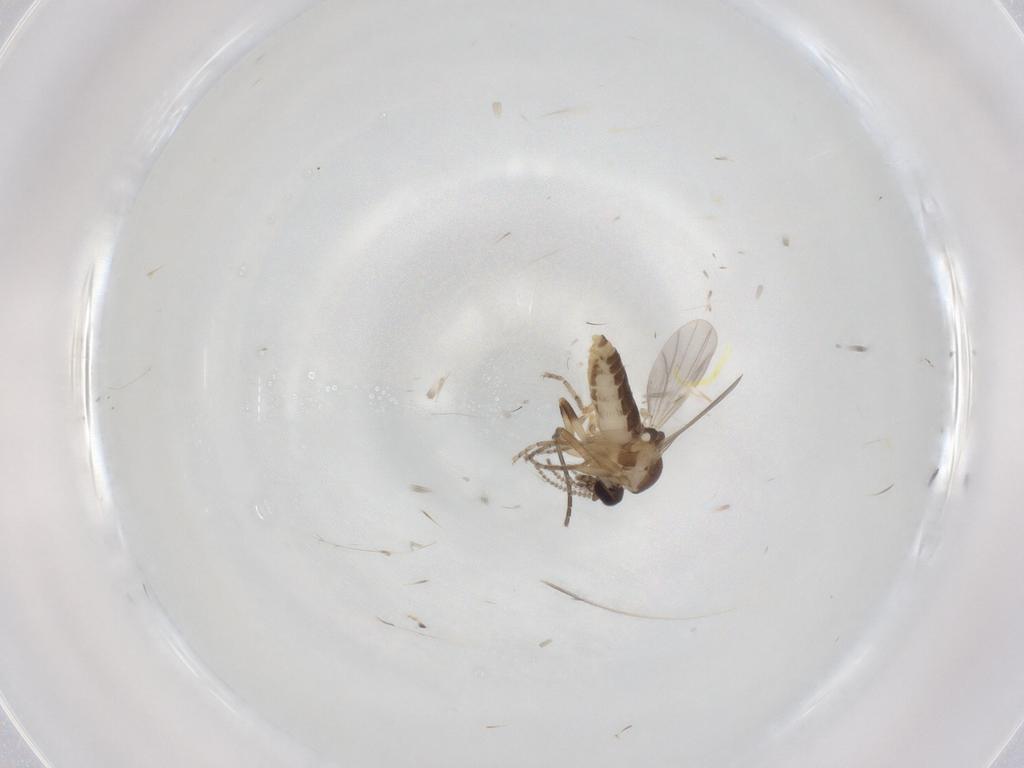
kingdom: Animalia
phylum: Arthropoda
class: Insecta
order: Diptera
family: Ceratopogonidae
